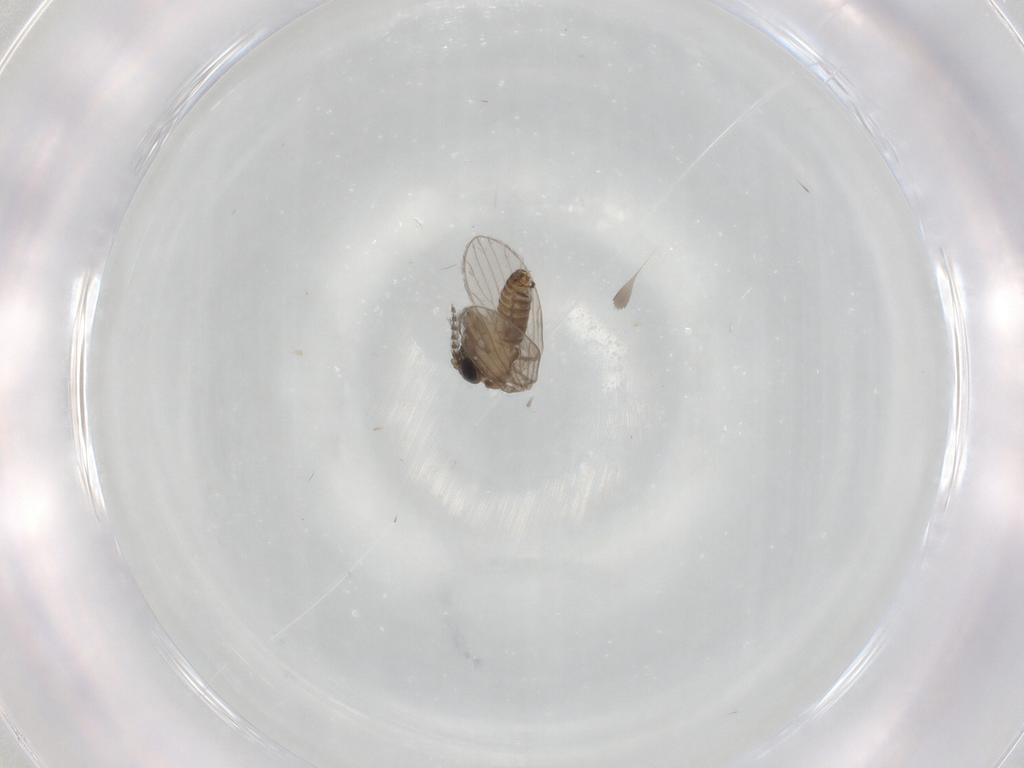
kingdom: Animalia
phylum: Arthropoda
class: Insecta
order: Diptera
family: Psychodidae
